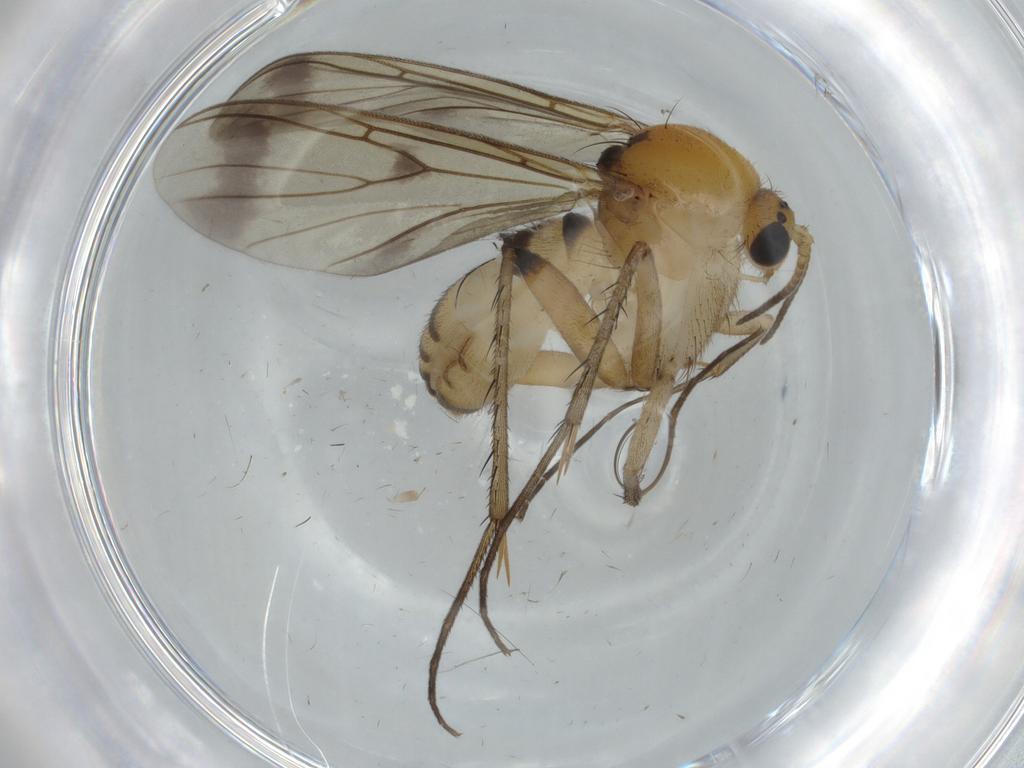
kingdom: Animalia
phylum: Arthropoda
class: Insecta
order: Diptera
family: Mycetophilidae
